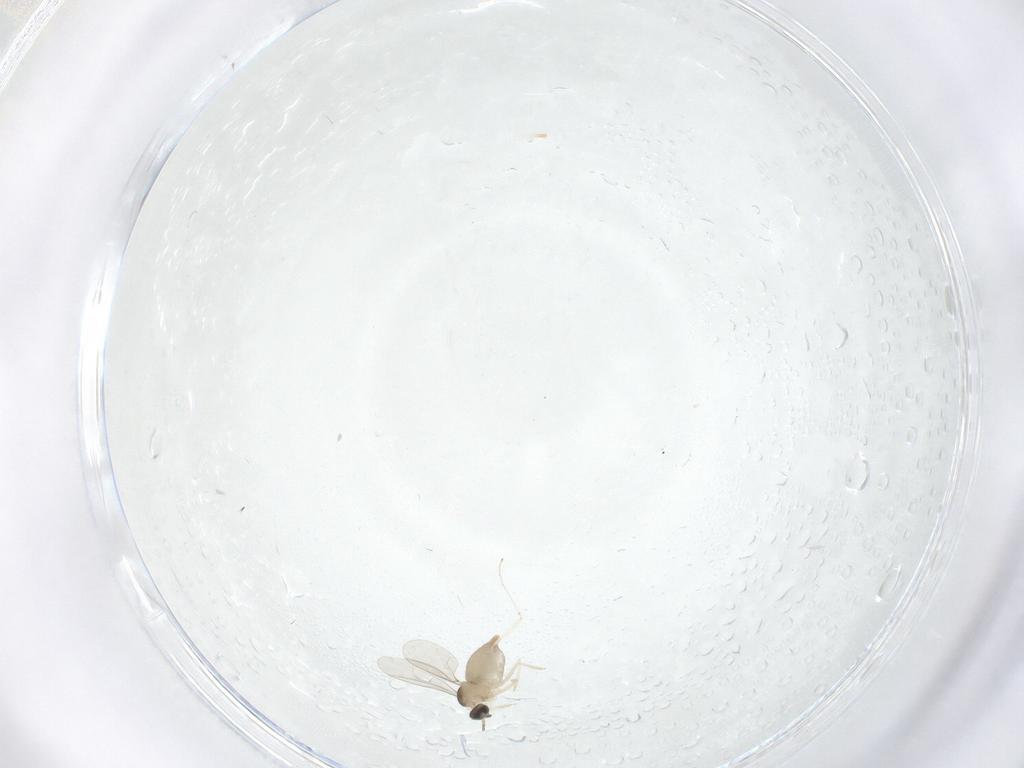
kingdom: Animalia
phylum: Arthropoda
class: Insecta
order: Diptera
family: Cecidomyiidae
